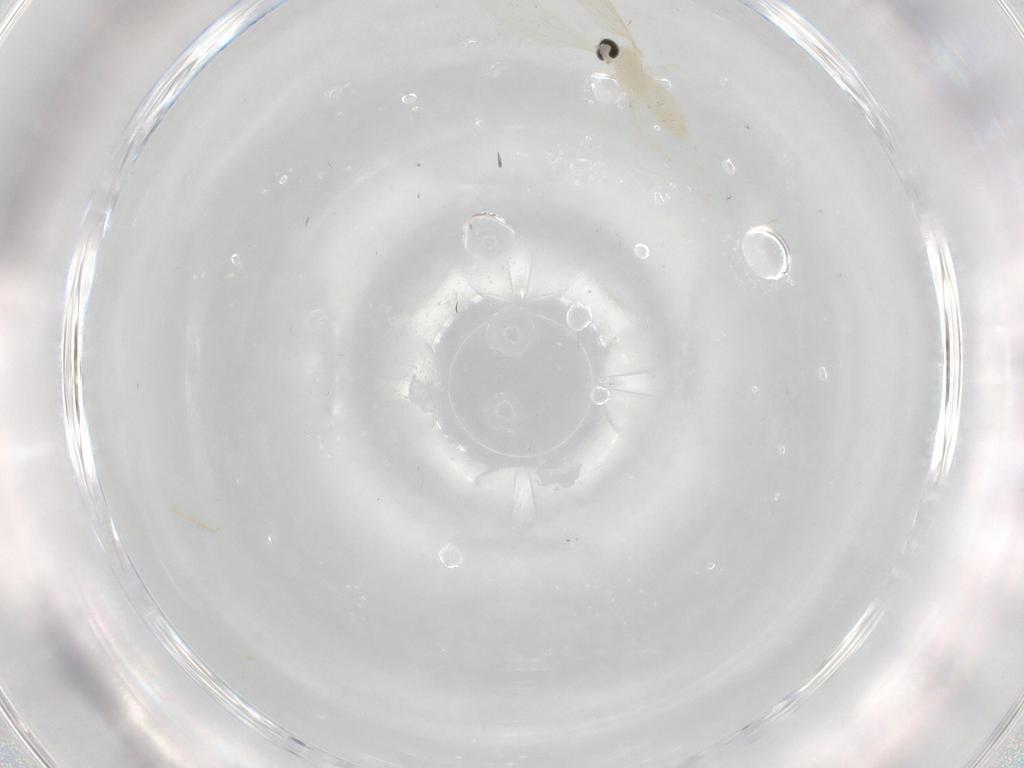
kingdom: Animalia
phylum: Arthropoda
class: Insecta
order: Diptera
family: Cecidomyiidae
